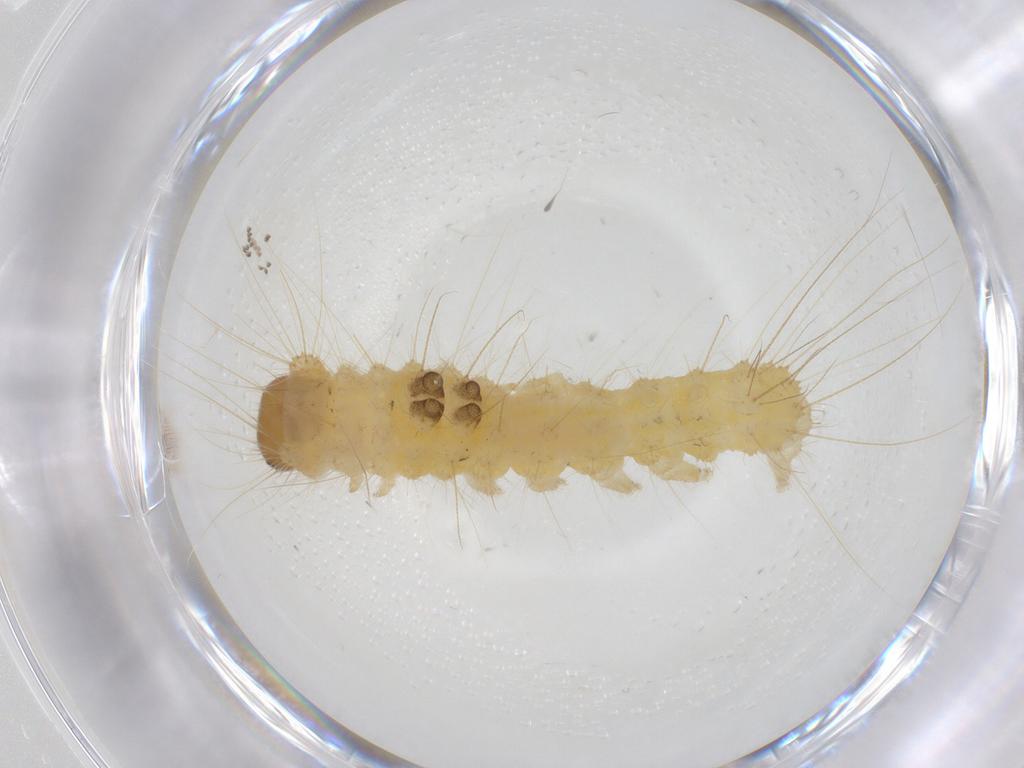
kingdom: Animalia
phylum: Arthropoda
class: Insecta
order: Lepidoptera
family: Erebidae
